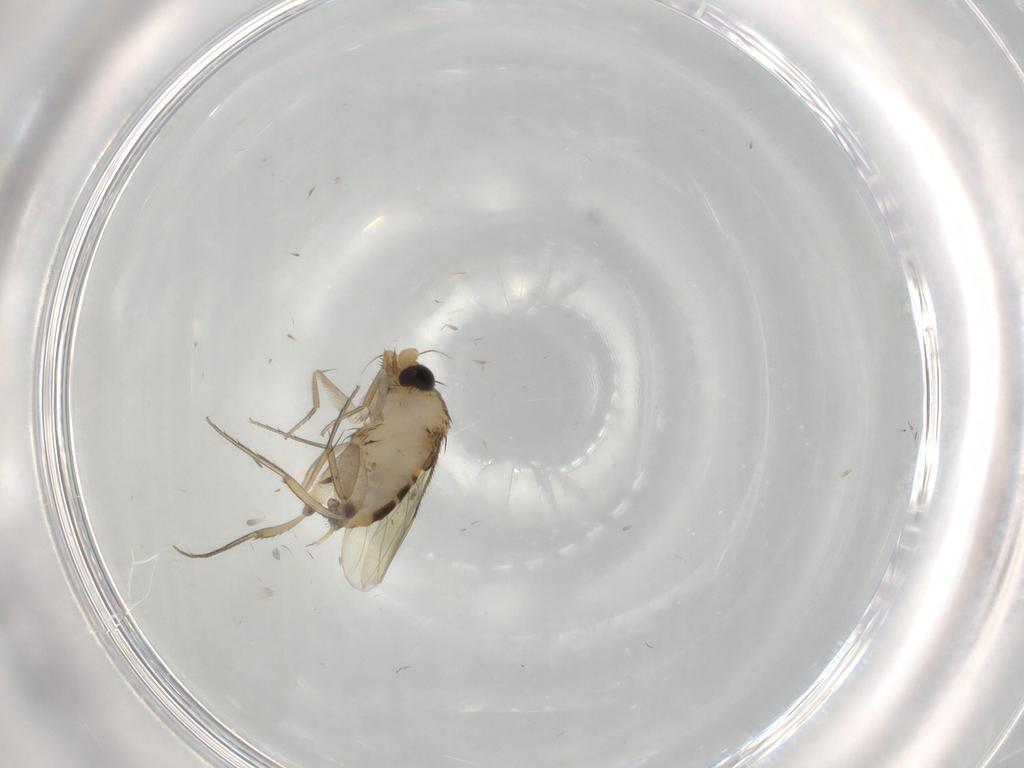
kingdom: Animalia
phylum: Arthropoda
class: Insecta
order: Diptera
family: Phoridae
